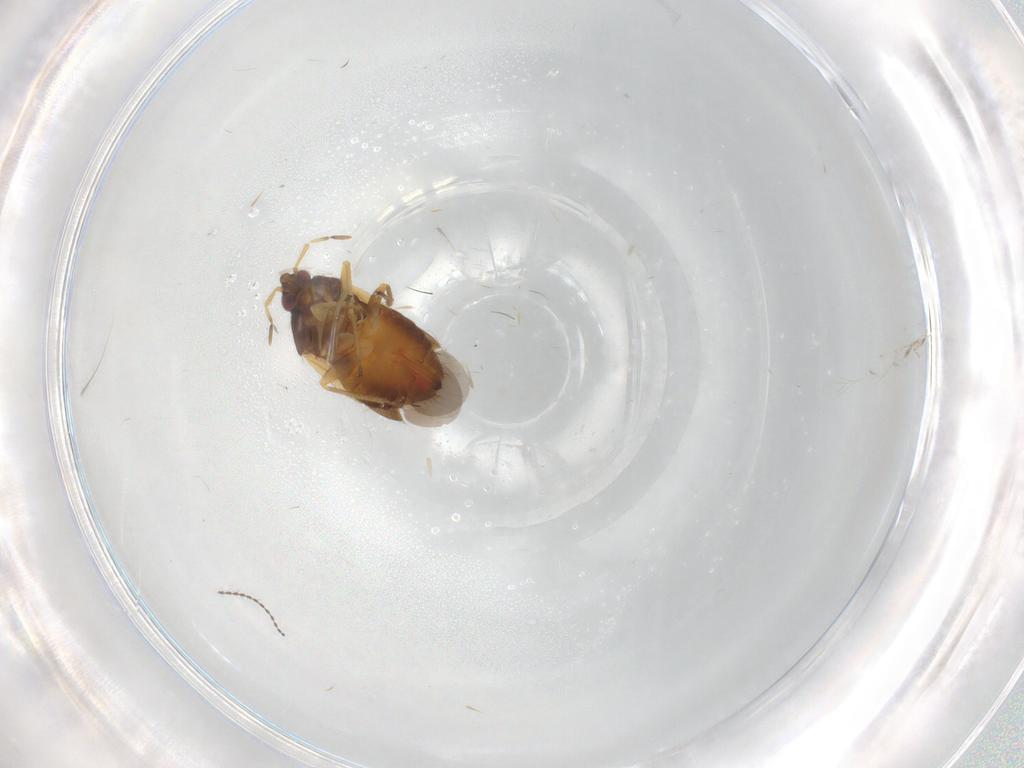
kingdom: Animalia
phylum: Arthropoda
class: Insecta
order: Hemiptera
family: Anthocoridae
